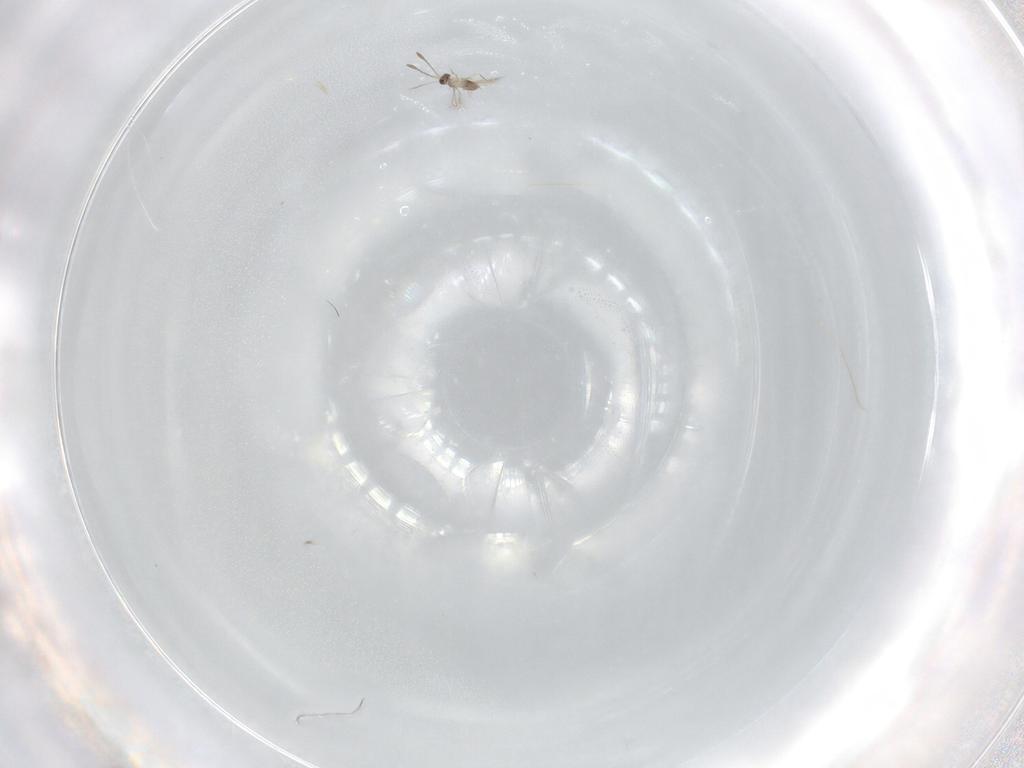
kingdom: Animalia
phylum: Arthropoda
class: Insecta
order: Hymenoptera
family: Mymaridae
